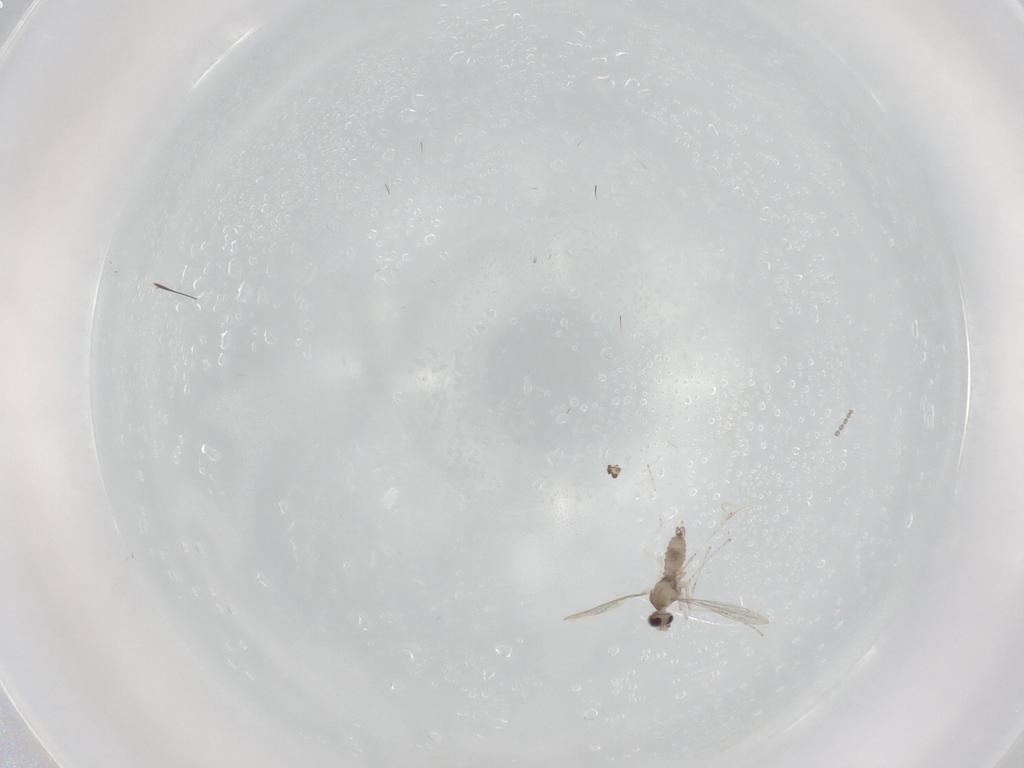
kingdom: Animalia
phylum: Arthropoda
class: Insecta
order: Diptera
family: Cecidomyiidae
